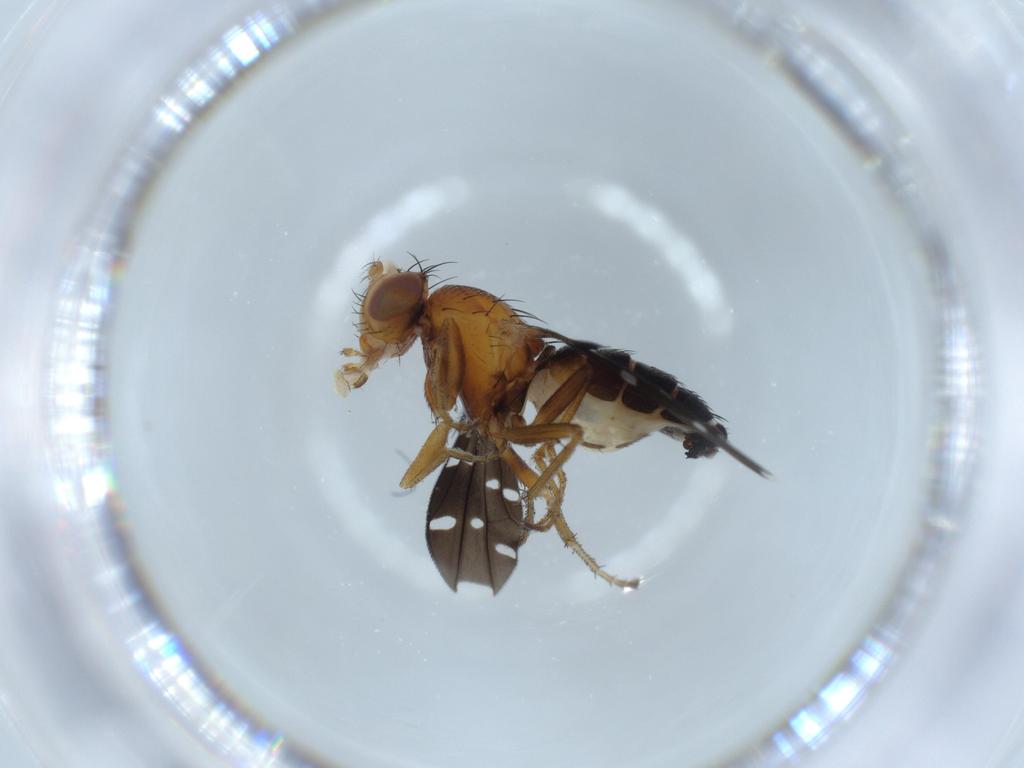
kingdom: Animalia
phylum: Arthropoda
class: Insecta
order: Diptera
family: Ephydridae
